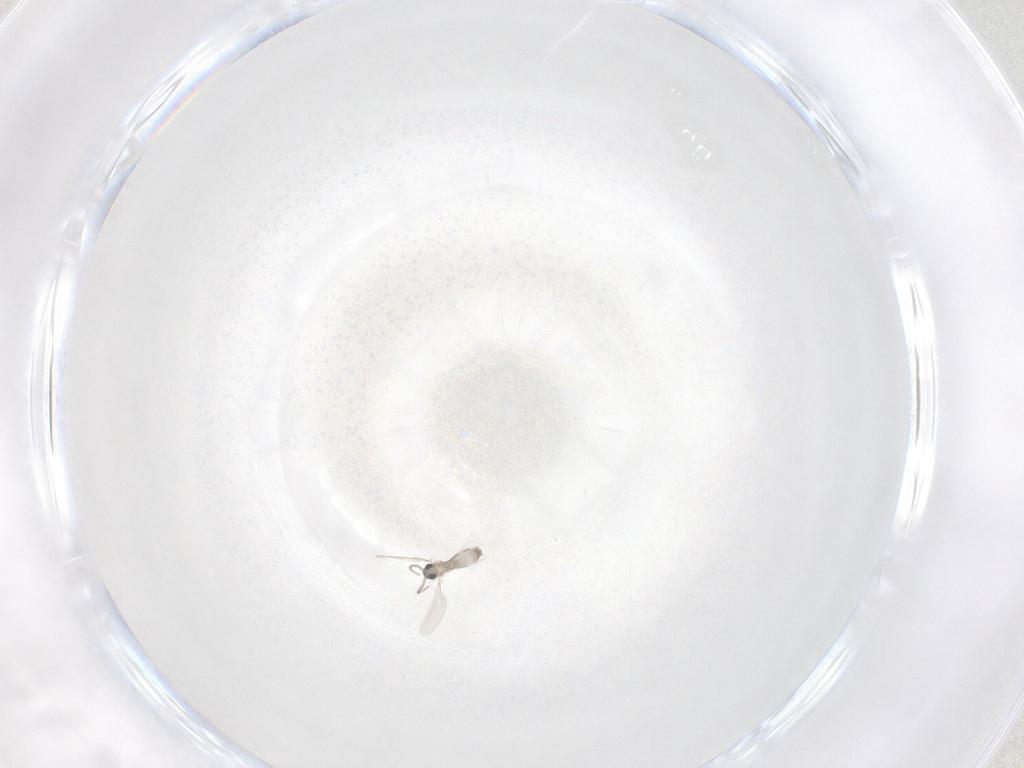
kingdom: Animalia
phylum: Arthropoda
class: Insecta
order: Diptera
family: Cecidomyiidae
